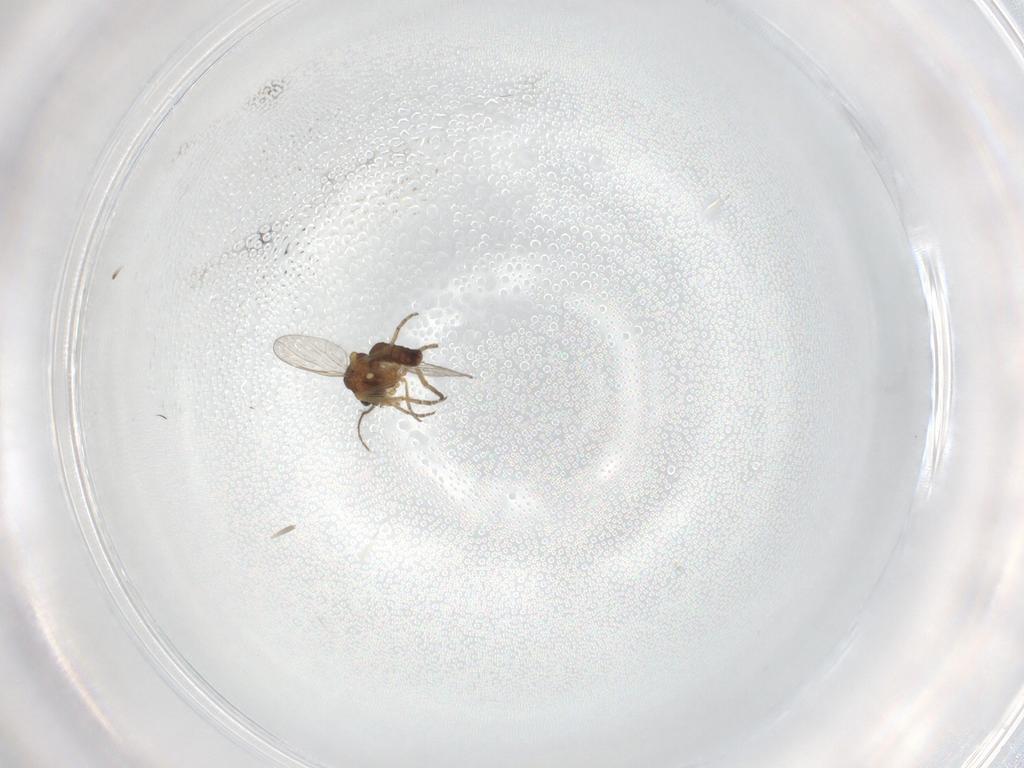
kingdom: Animalia
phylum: Arthropoda
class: Insecta
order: Diptera
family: Ceratopogonidae
